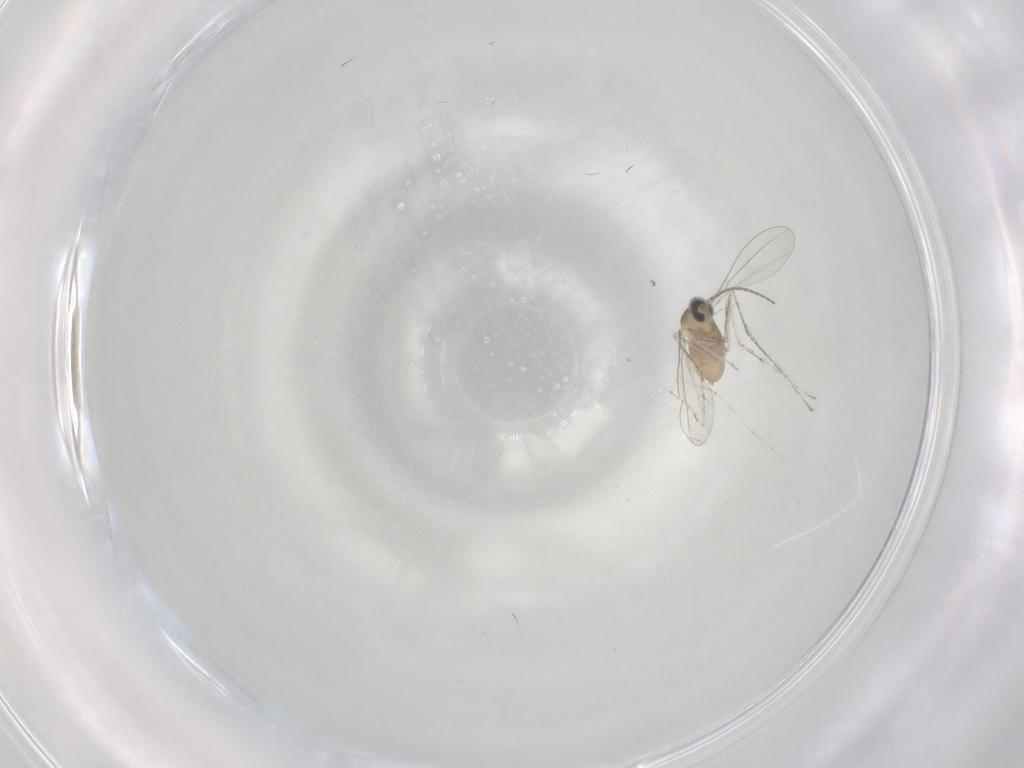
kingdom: Animalia
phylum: Arthropoda
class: Insecta
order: Diptera
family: Cecidomyiidae
